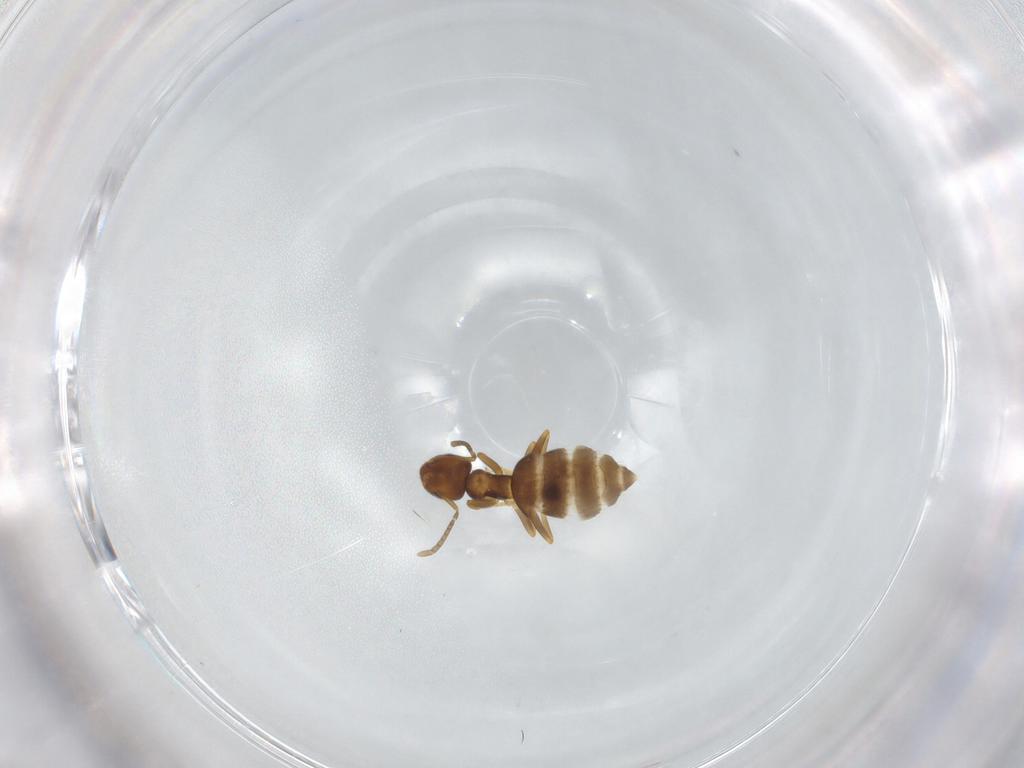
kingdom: Animalia
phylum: Arthropoda
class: Insecta
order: Hymenoptera
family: Formicidae
